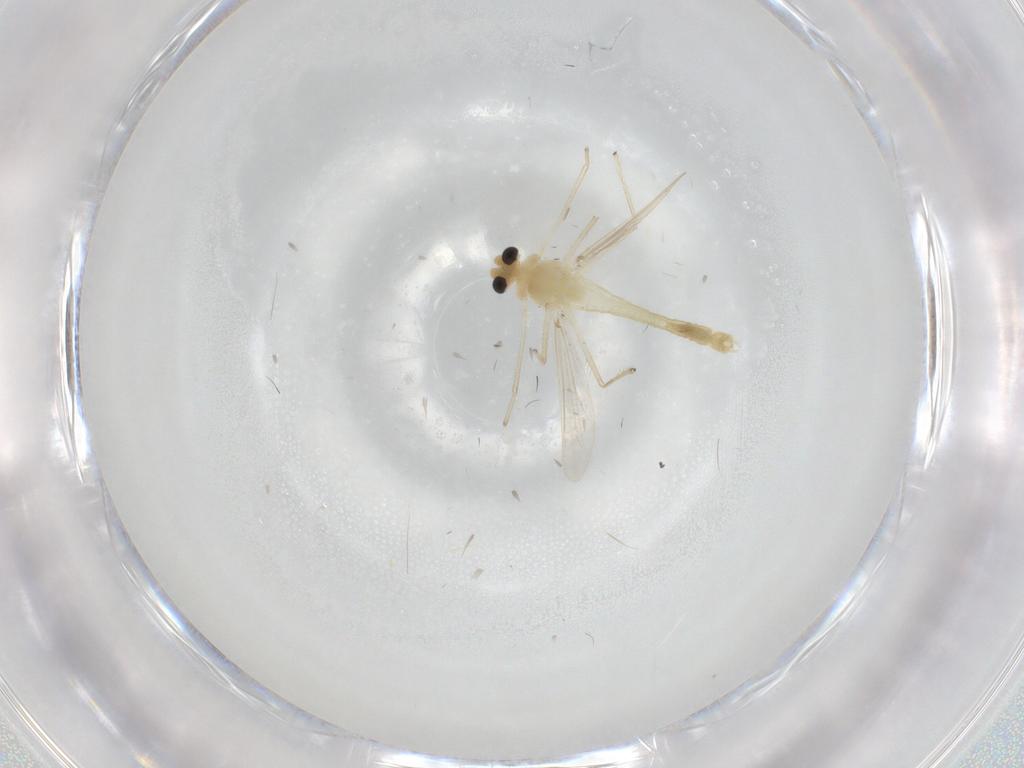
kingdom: Animalia
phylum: Arthropoda
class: Insecta
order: Diptera
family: Chironomidae
